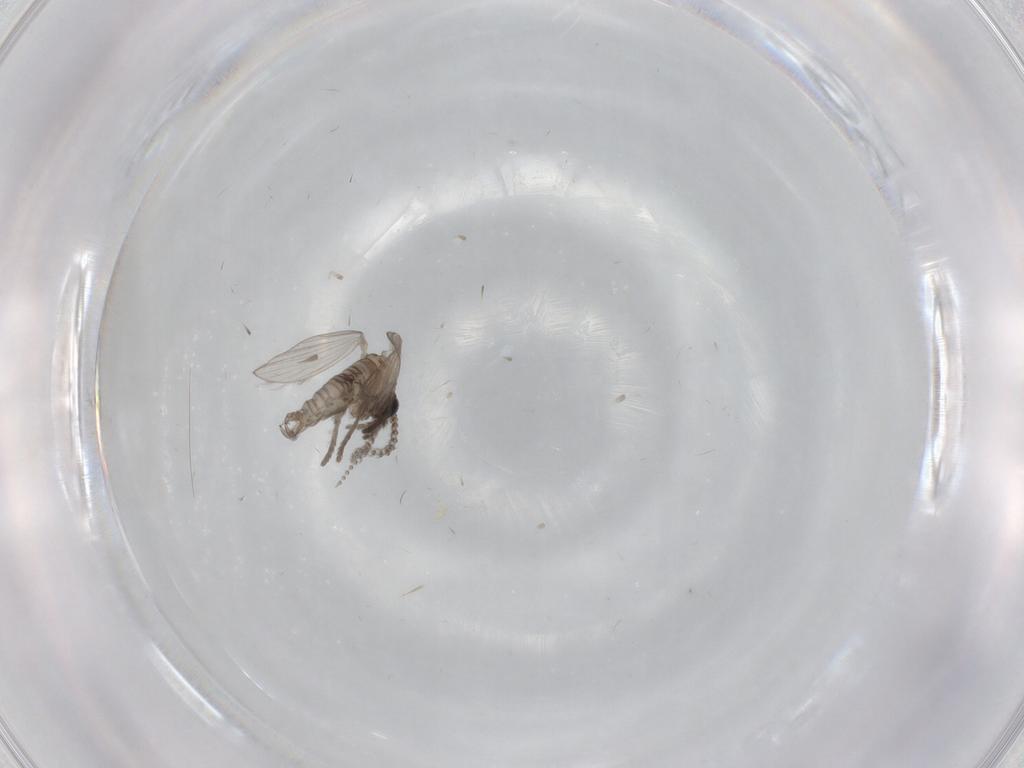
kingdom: Animalia
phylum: Arthropoda
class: Insecta
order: Diptera
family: Psychodidae
